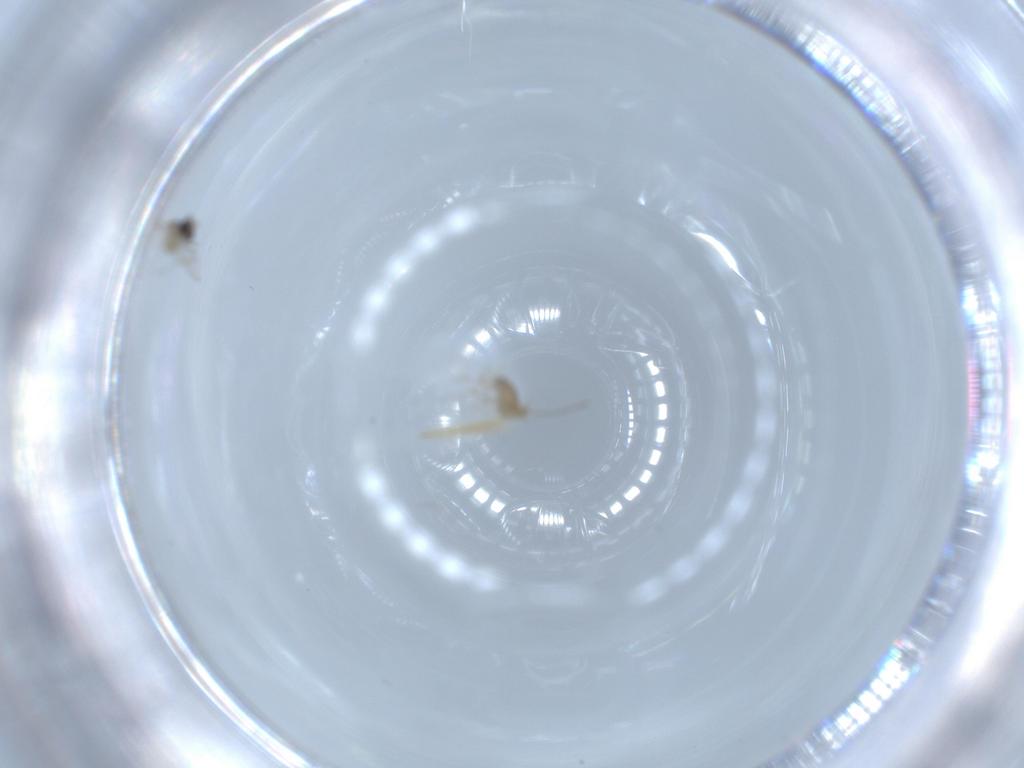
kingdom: Animalia
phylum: Arthropoda
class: Insecta
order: Diptera
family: Cecidomyiidae
